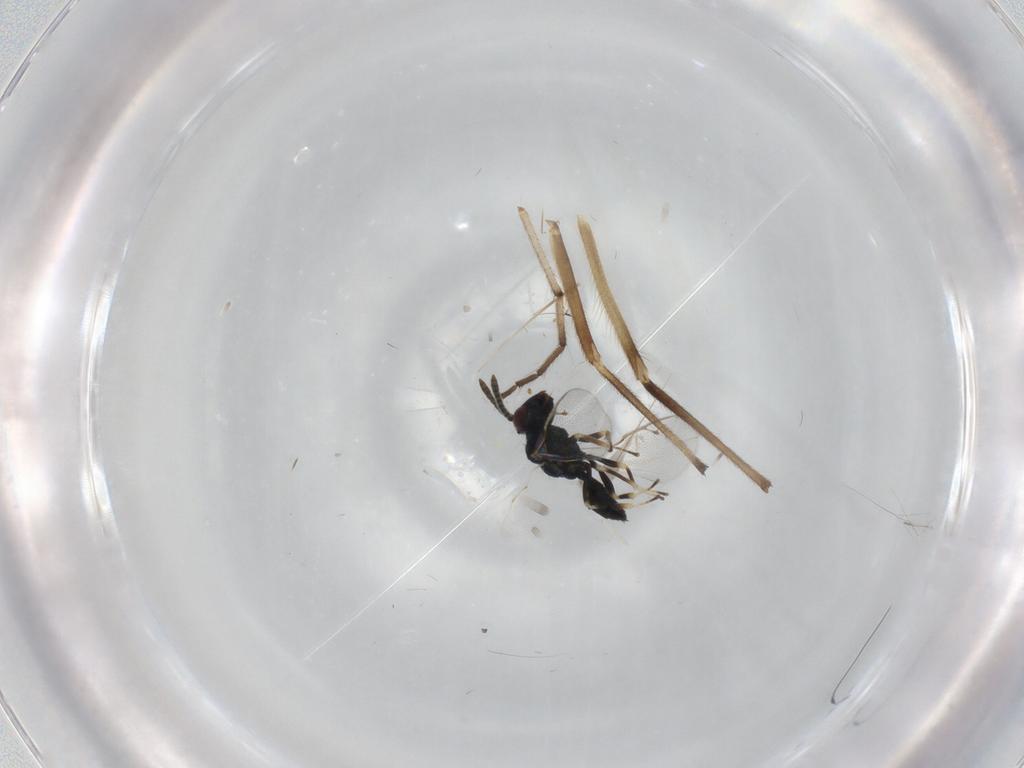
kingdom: Animalia
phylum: Arthropoda
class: Insecta
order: Hymenoptera
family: Pteromalidae
